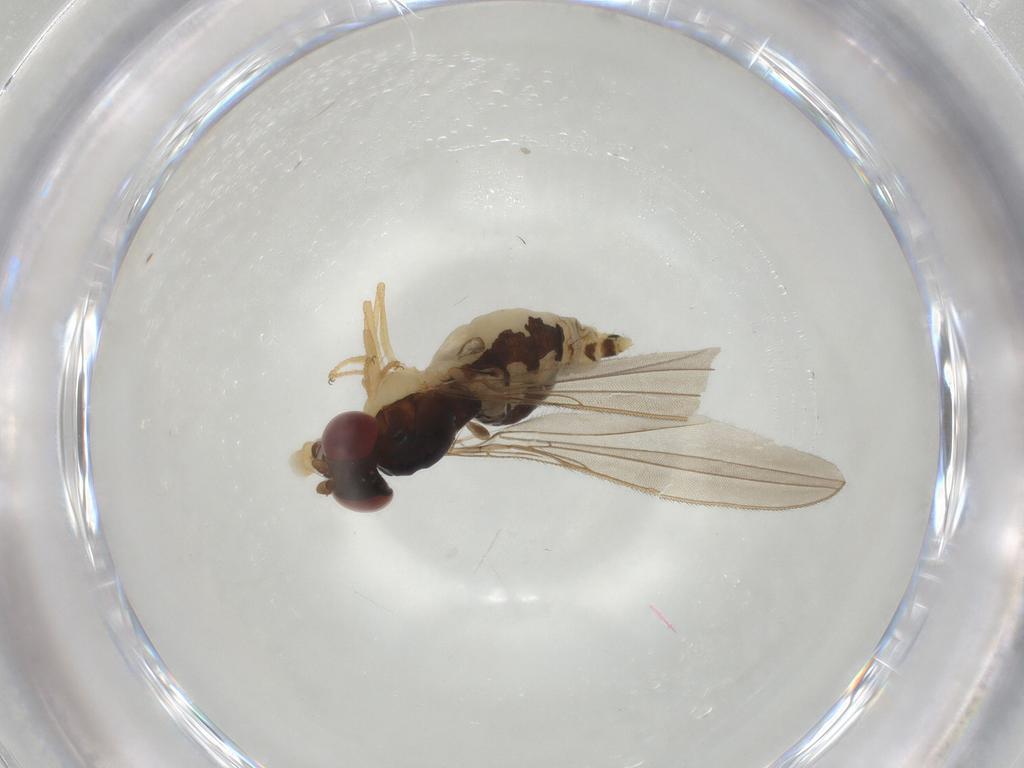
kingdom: Animalia
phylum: Arthropoda
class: Insecta
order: Diptera
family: Asteiidae
